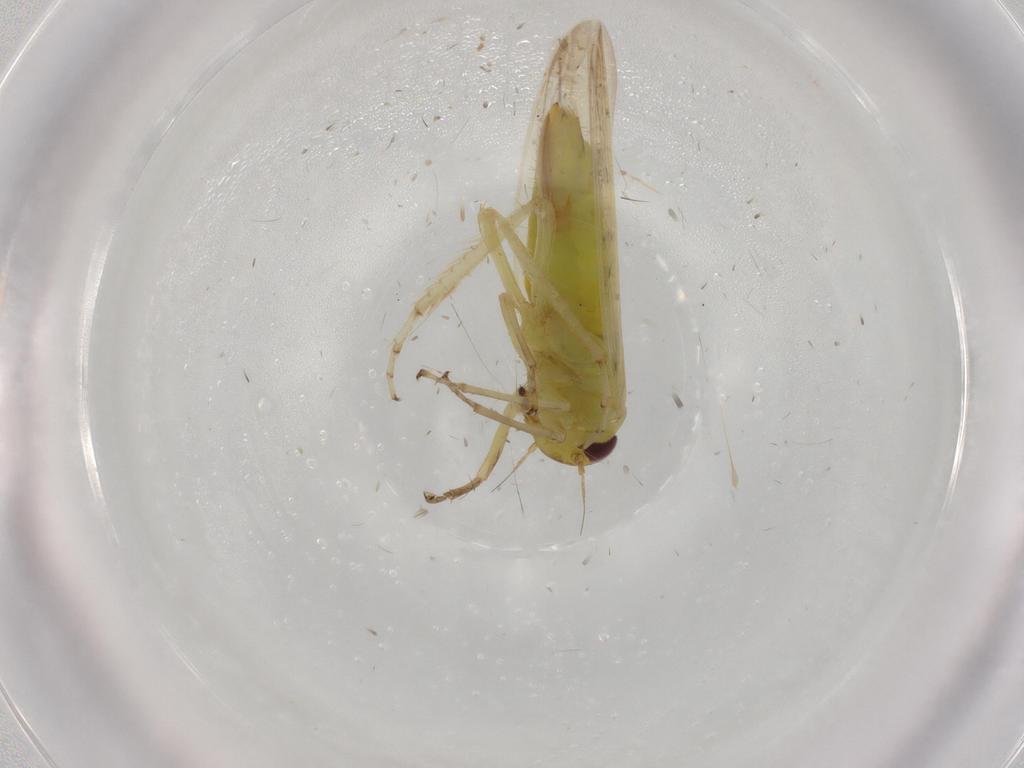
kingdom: Animalia
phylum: Arthropoda
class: Insecta
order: Hemiptera
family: Cicadellidae
